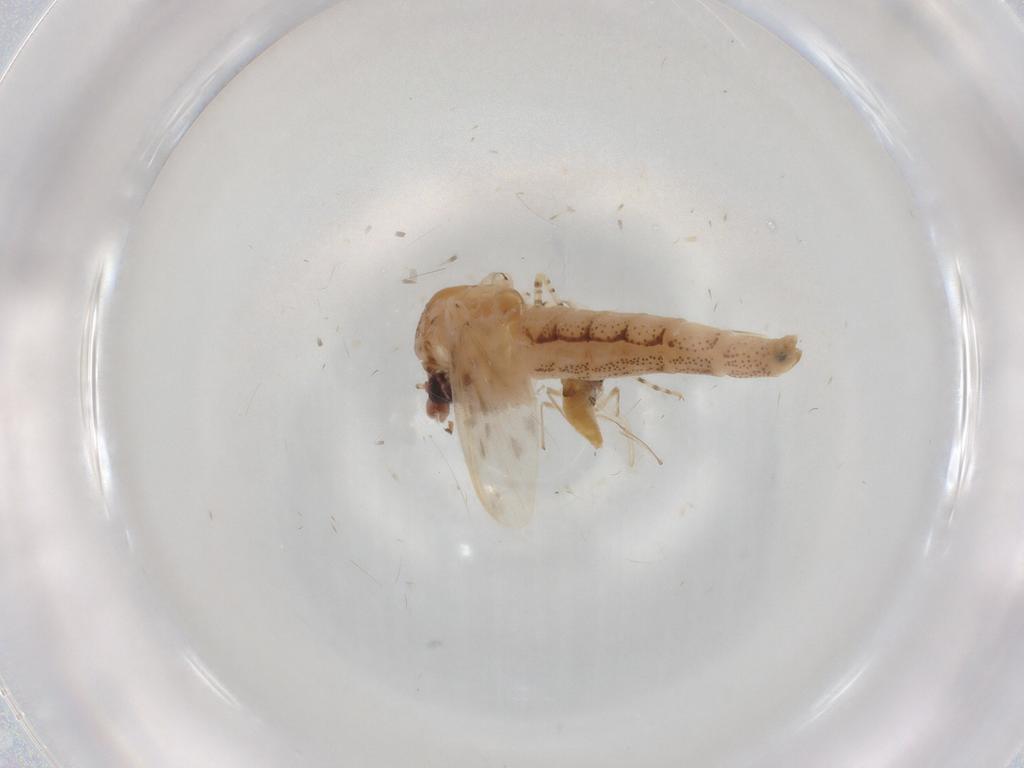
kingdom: Animalia
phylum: Arthropoda
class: Insecta
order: Diptera
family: Chaoboridae
